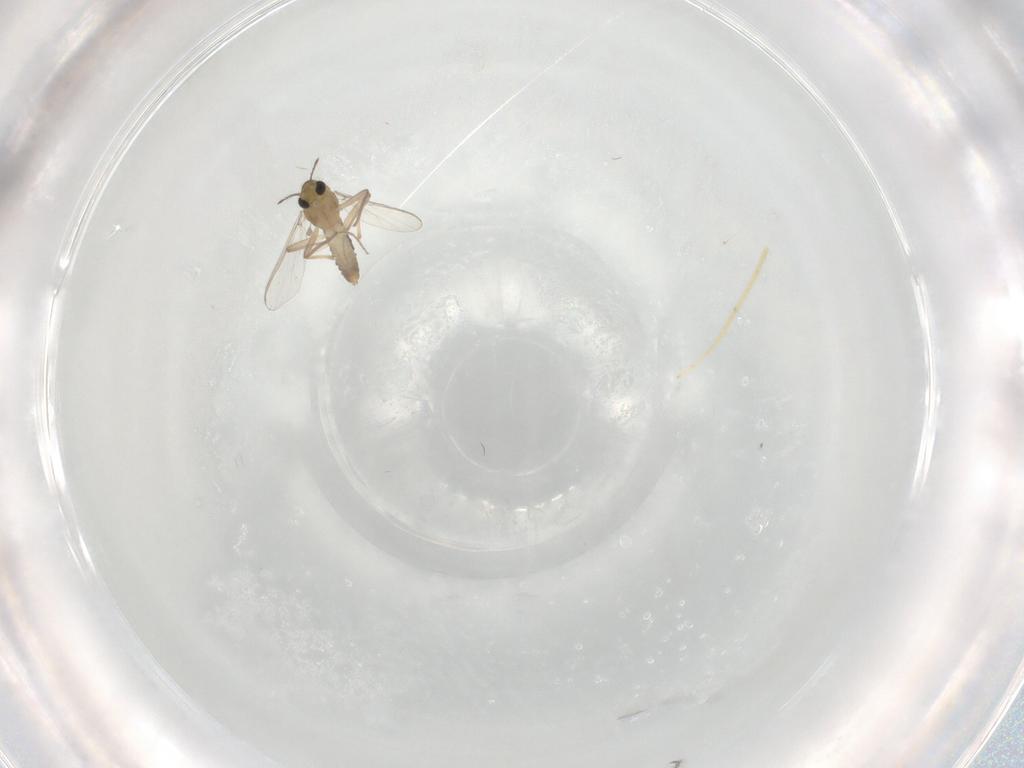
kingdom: Animalia
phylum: Arthropoda
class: Insecta
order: Diptera
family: Chironomidae
